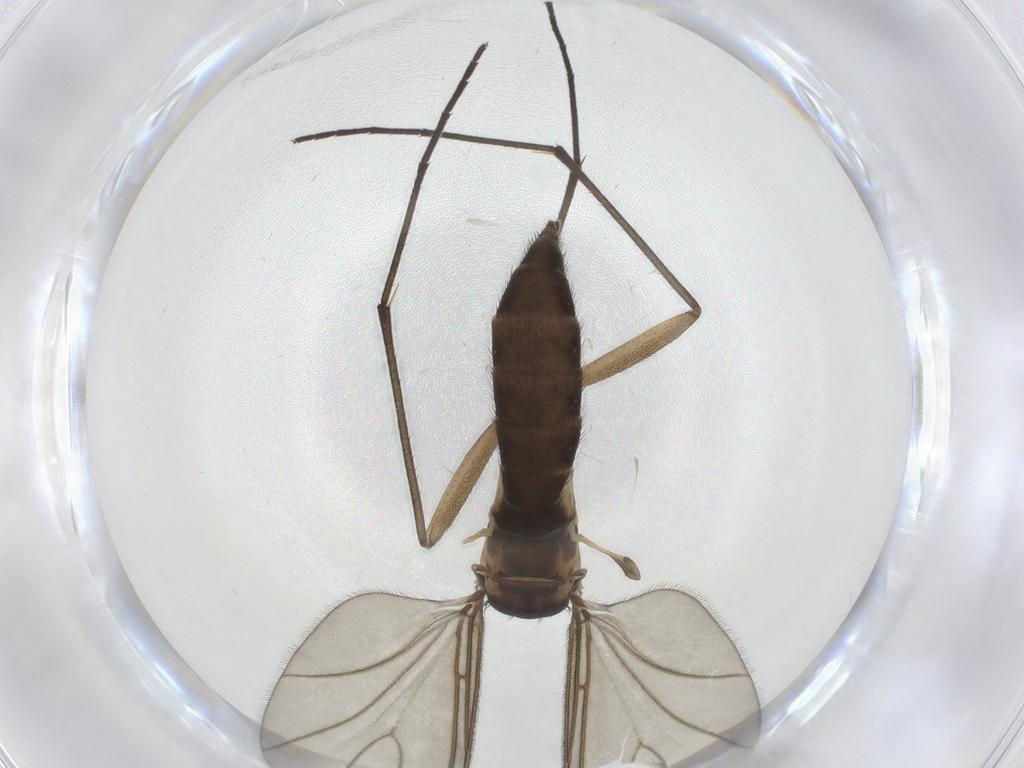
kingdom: Animalia
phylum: Arthropoda
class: Insecta
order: Diptera
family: Sciaridae
